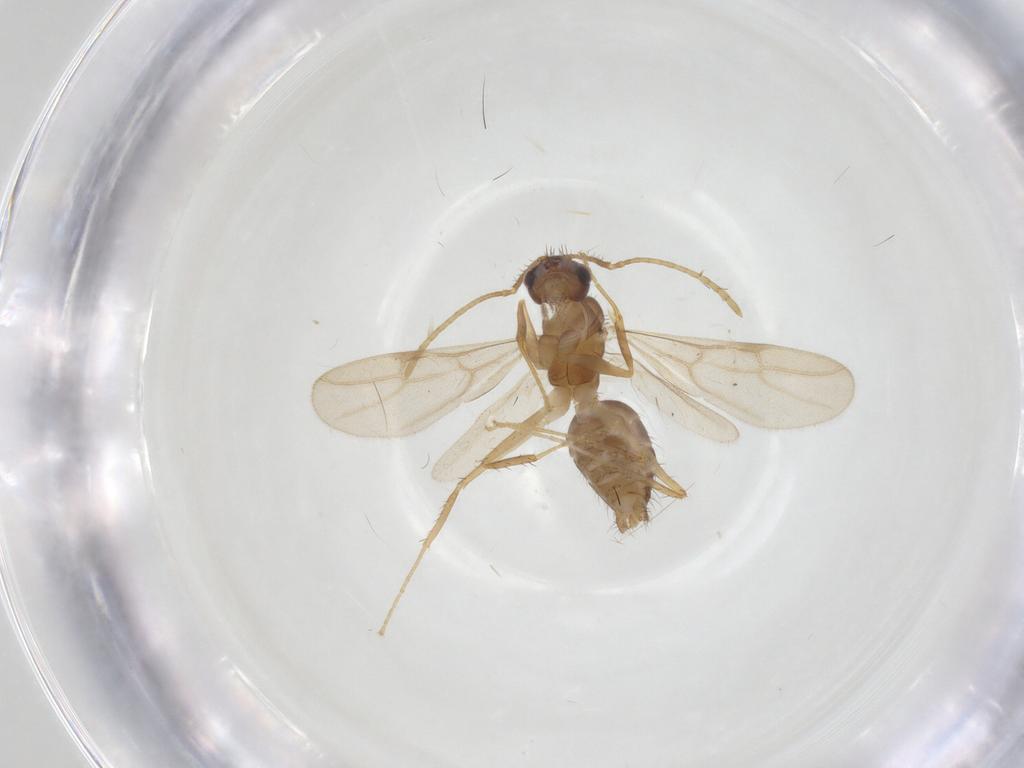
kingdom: Animalia
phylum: Arthropoda
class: Insecta
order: Hymenoptera
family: Formicidae
